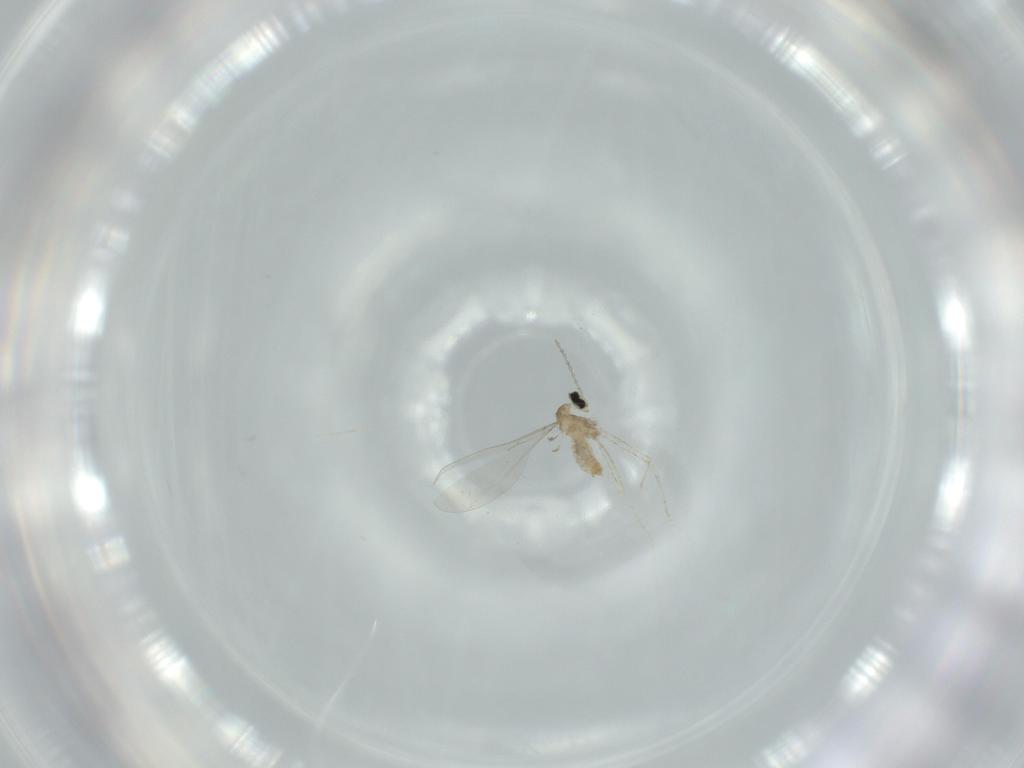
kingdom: Animalia
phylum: Arthropoda
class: Insecta
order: Diptera
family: Cecidomyiidae
